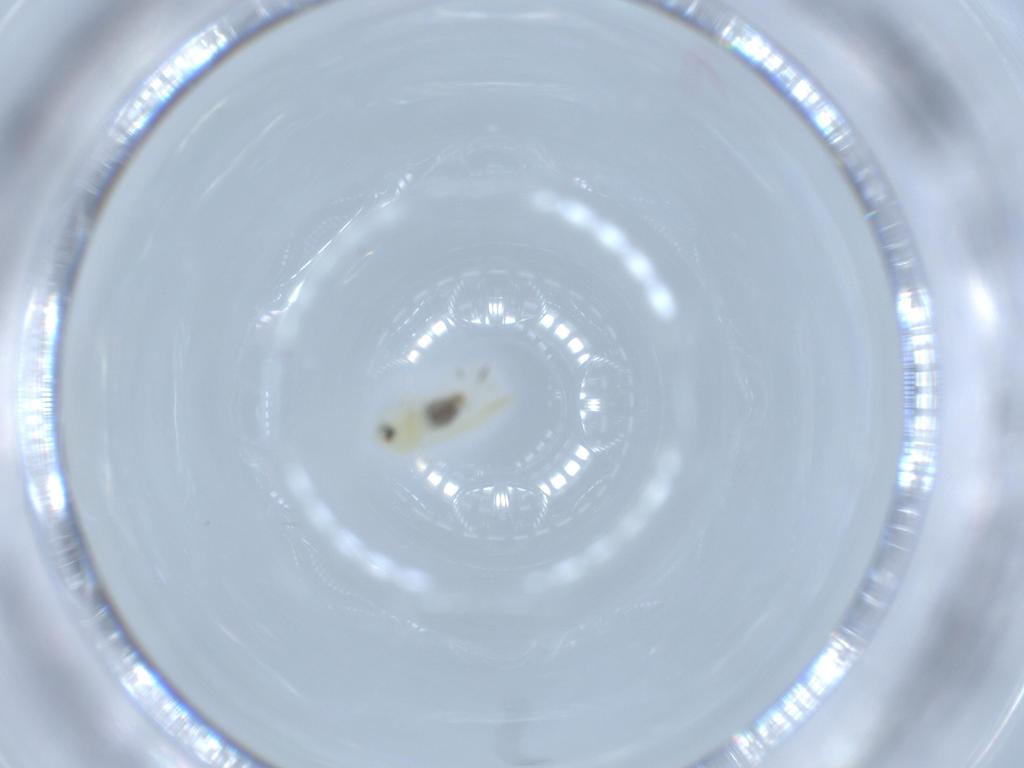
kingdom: Animalia
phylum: Arthropoda
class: Insecta
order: Coleoptera
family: Chrysomelidae
